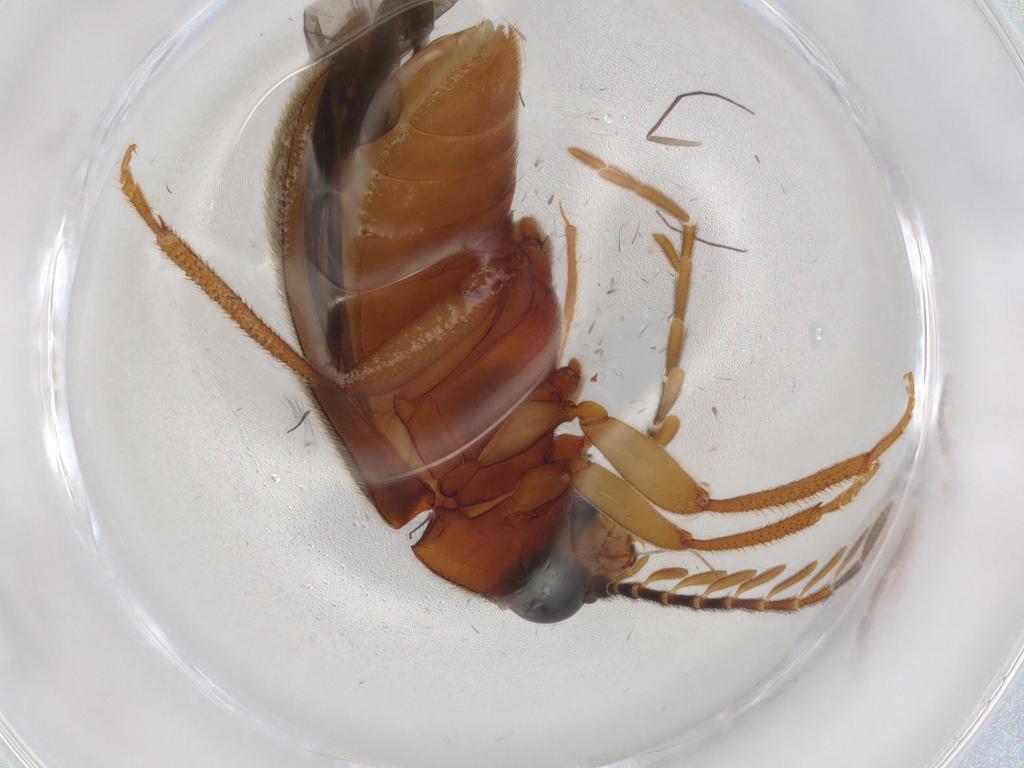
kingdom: Animalia
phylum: Arthropoda
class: Insecta
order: Coleoptera
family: Ptilodactylidae
